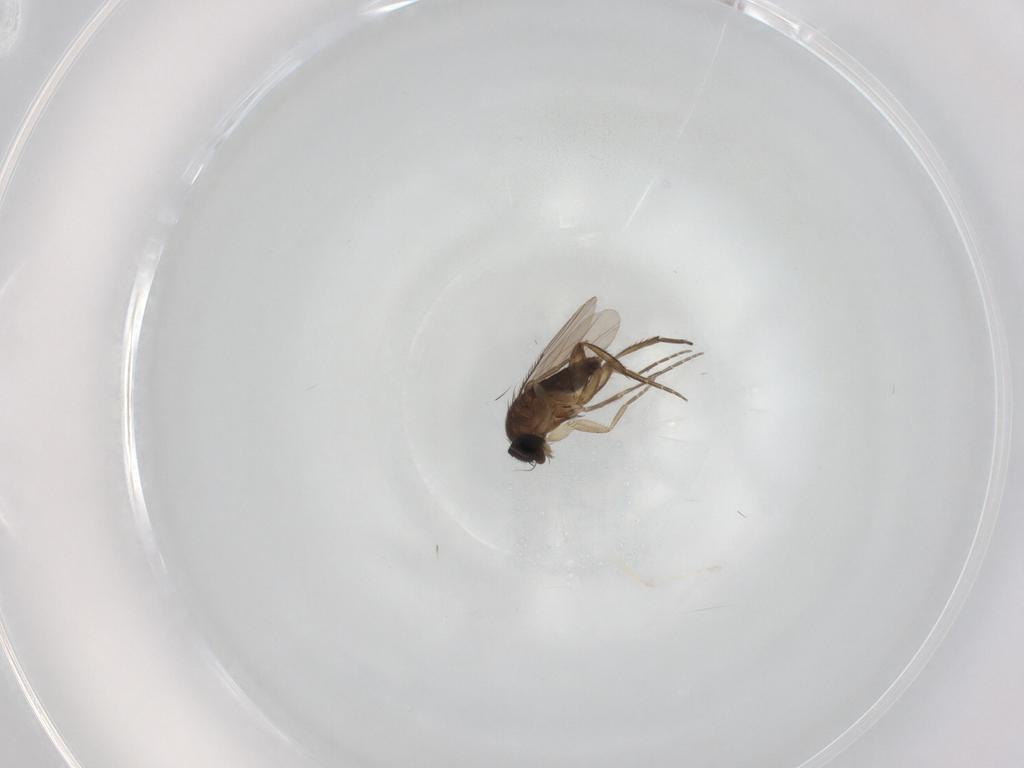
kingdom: Animalia
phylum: Arthropoda
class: Insecta
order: Diptera
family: Phoridae
